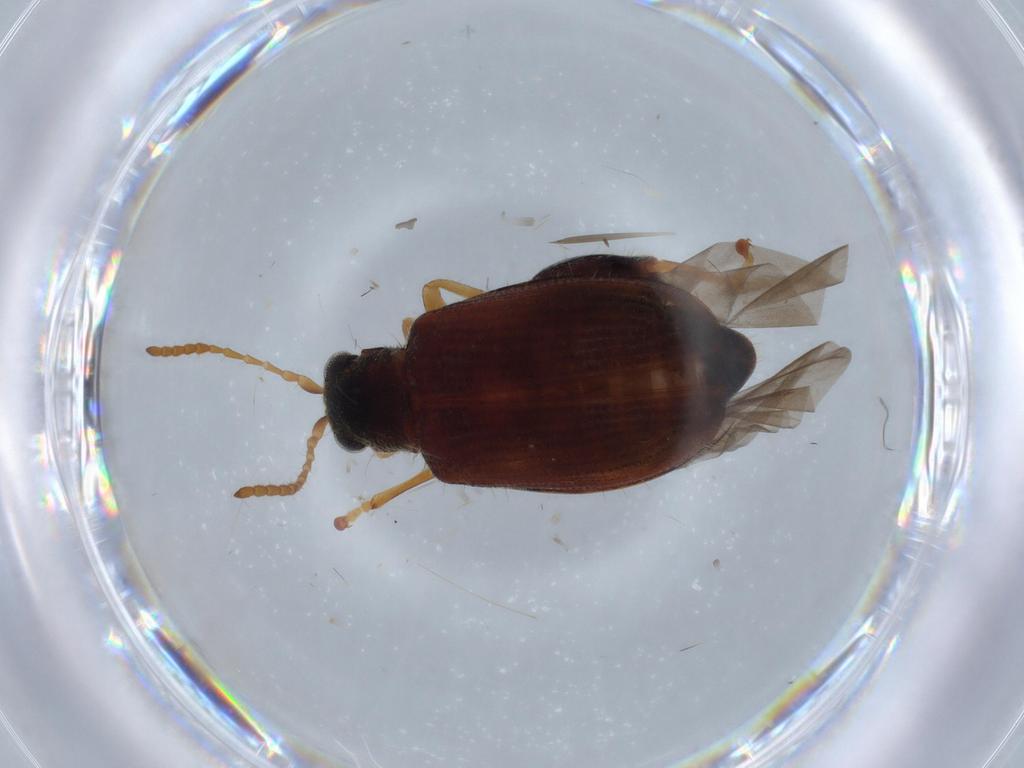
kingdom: Animalia
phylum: Arthropoda
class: Insecta
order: Coleoptera
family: Chrysomelidae
